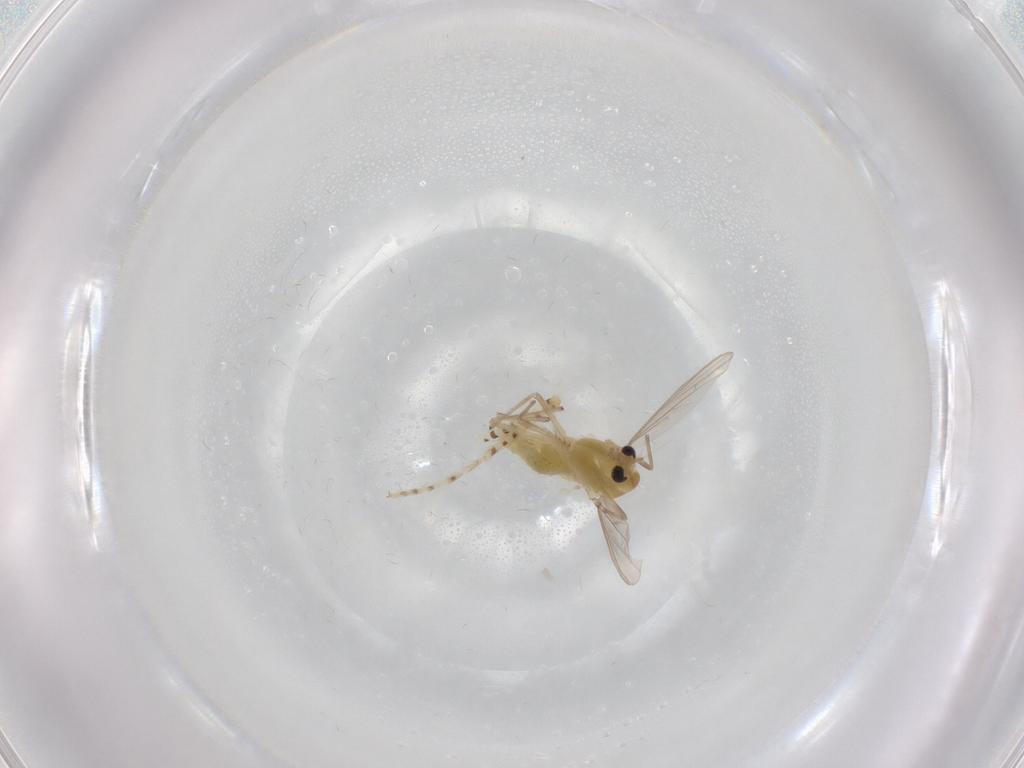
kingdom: Animalia
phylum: Arthropoda
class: Insecta
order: Diptera
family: Chironomidae
